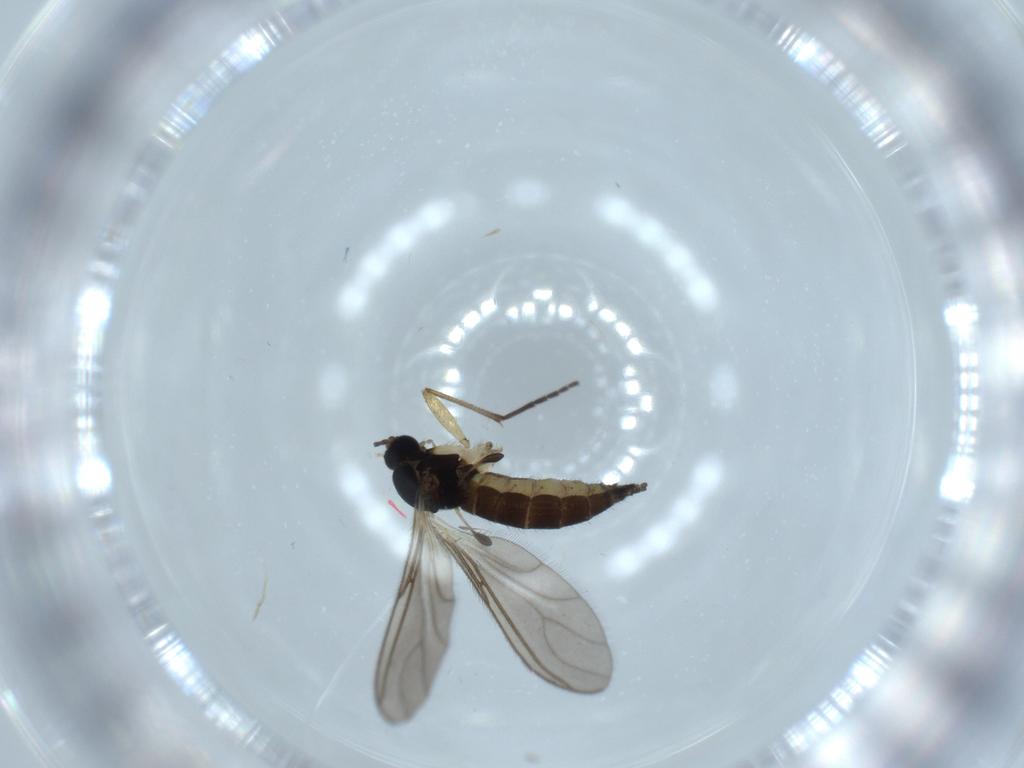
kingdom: Animalia
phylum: Arthropoda
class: Insecta
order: Diptera
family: Sciaridae
